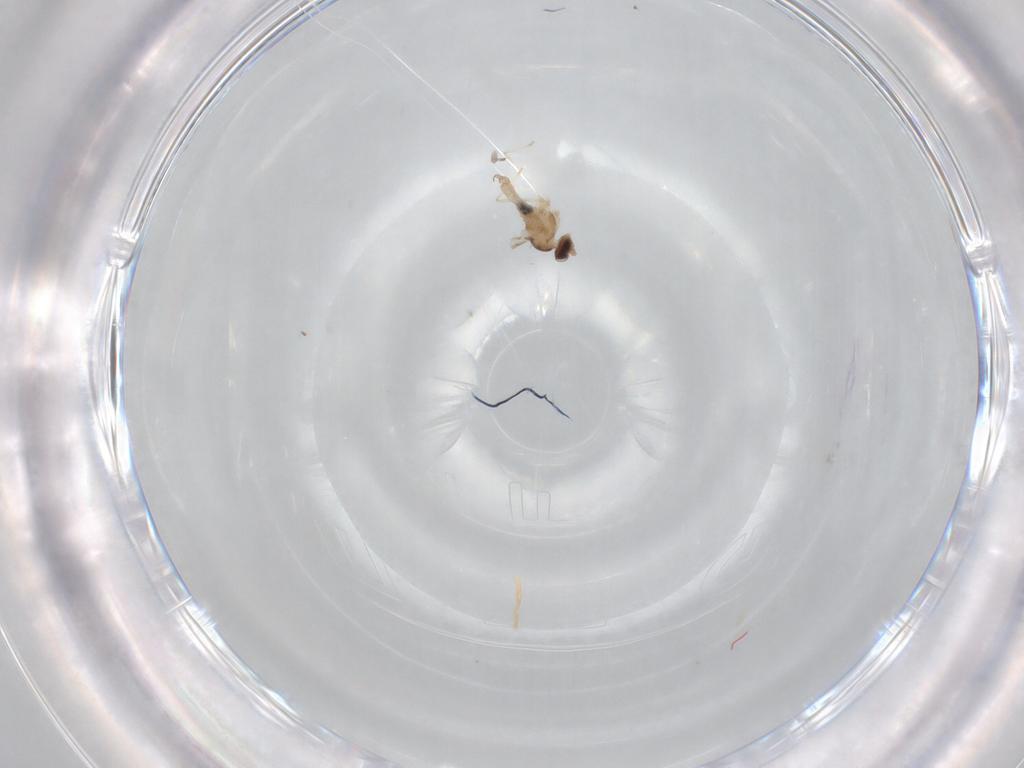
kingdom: Animalia
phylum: Arthropoda
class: Insecta
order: Diptera
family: Cecidomyiidae
